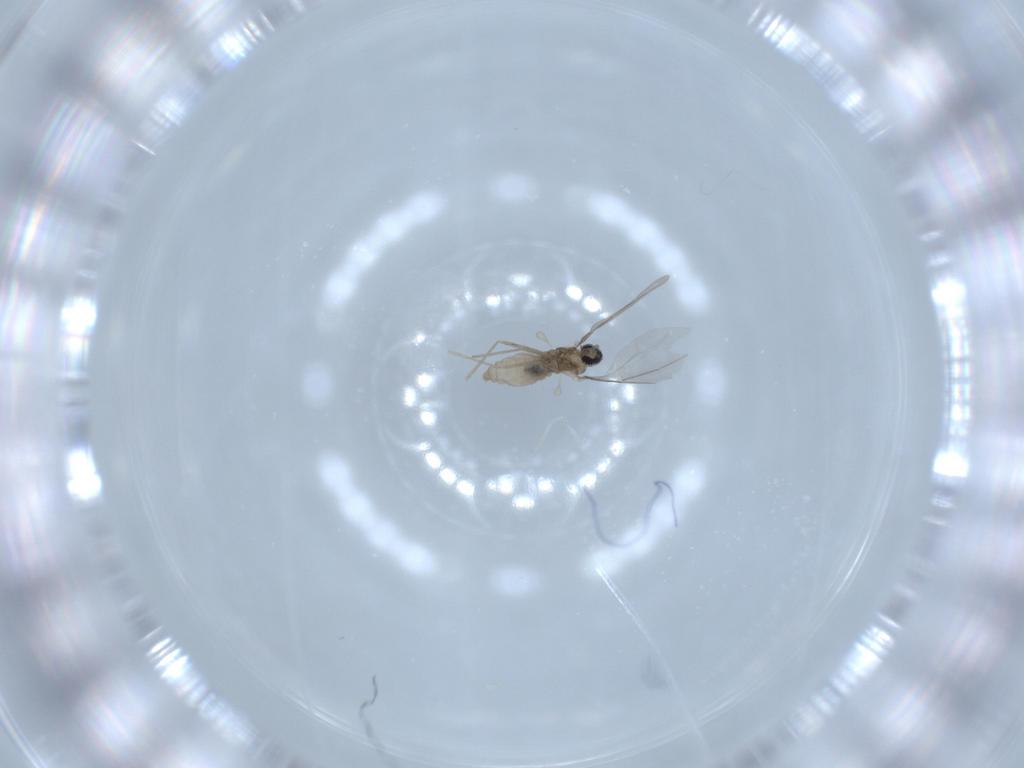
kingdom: Animalia
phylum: Arthropoda
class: Insecta
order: Diptera
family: Cecidomyiidae
